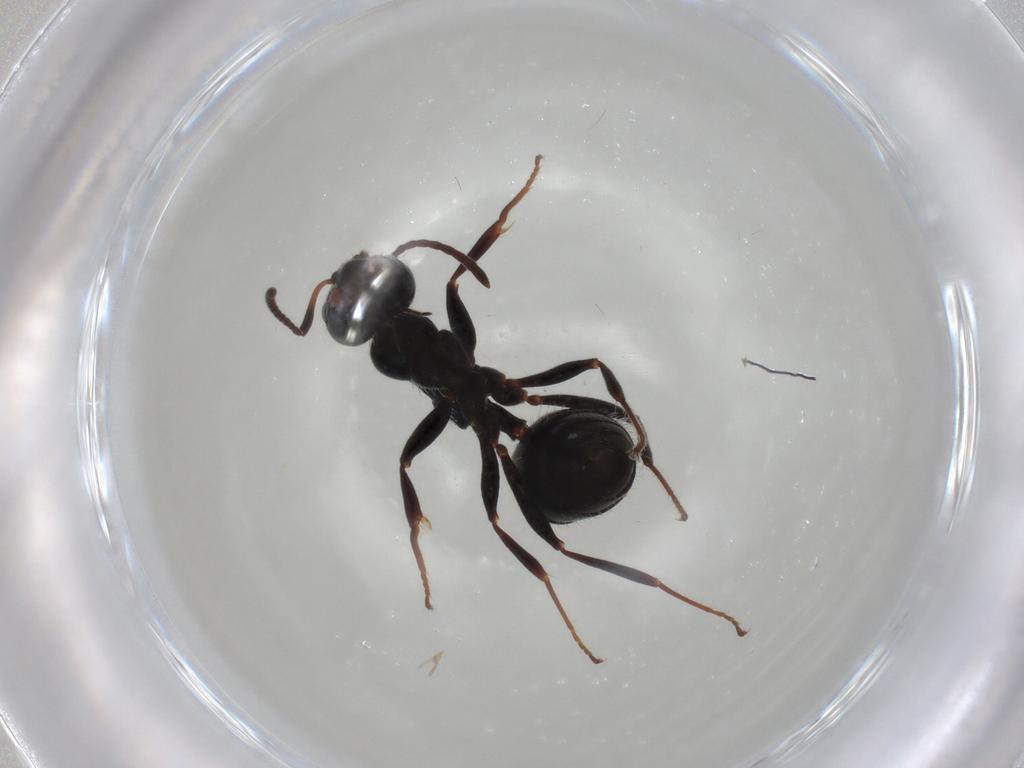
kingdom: Animalia
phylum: Arthropoda
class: Insecta
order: Hymenoptera
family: Formicidae
